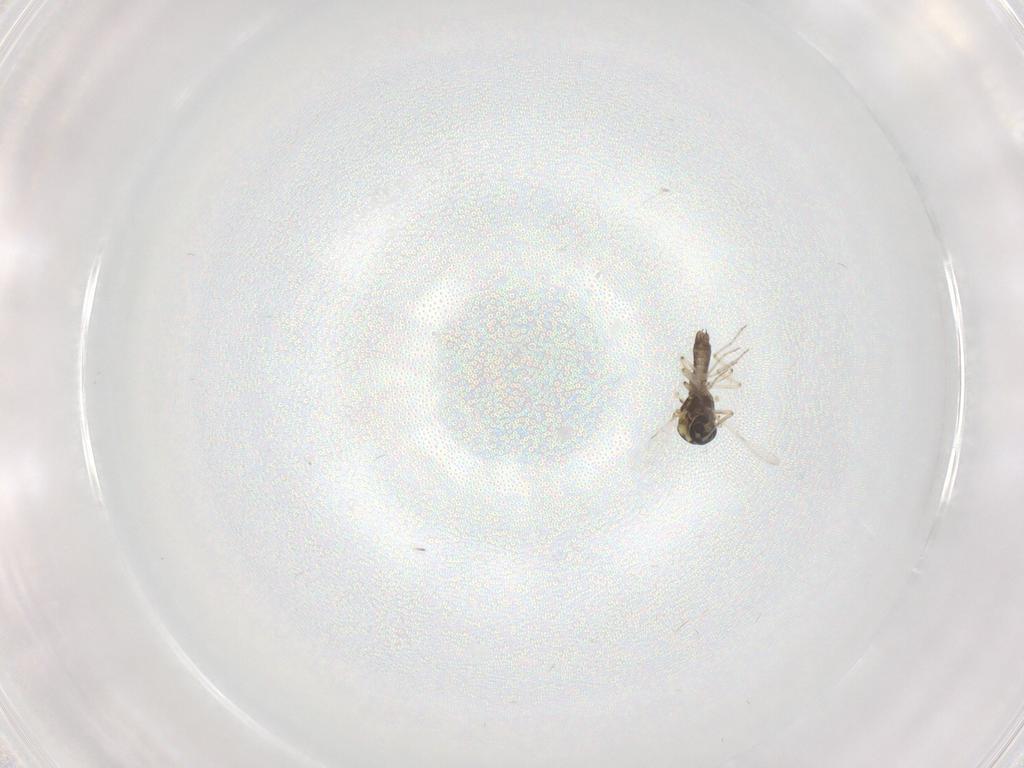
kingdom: Animalia
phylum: Arthropoda
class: Insecta
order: Diptera
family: Ceratopogonidae
